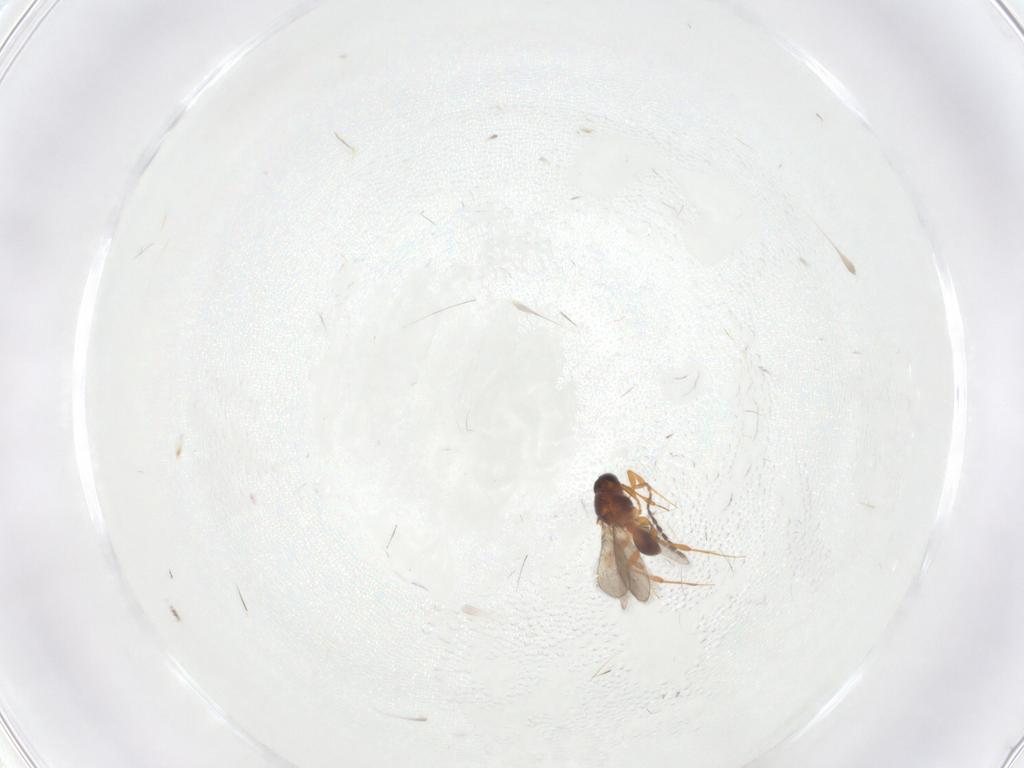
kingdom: Animalia
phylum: Arthropoda
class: Insecta
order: Hymenoptera
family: Platygastridae
